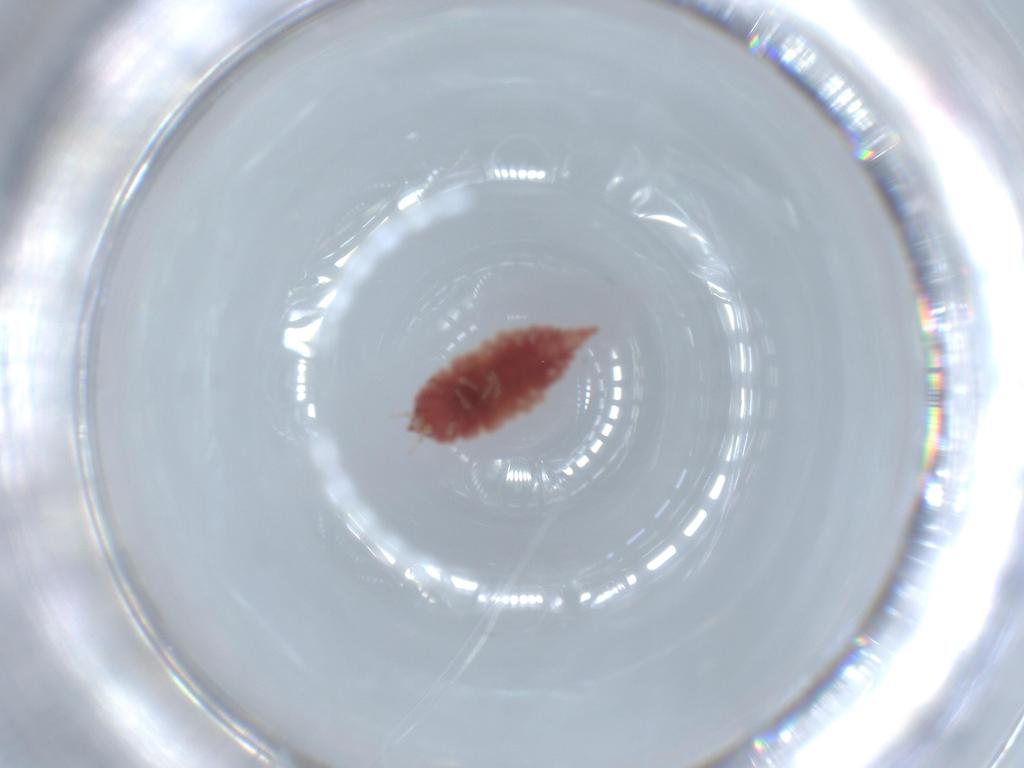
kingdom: Animalia
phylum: Arthropoda
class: Insecta
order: Neuroptera
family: Coniopterygidae
